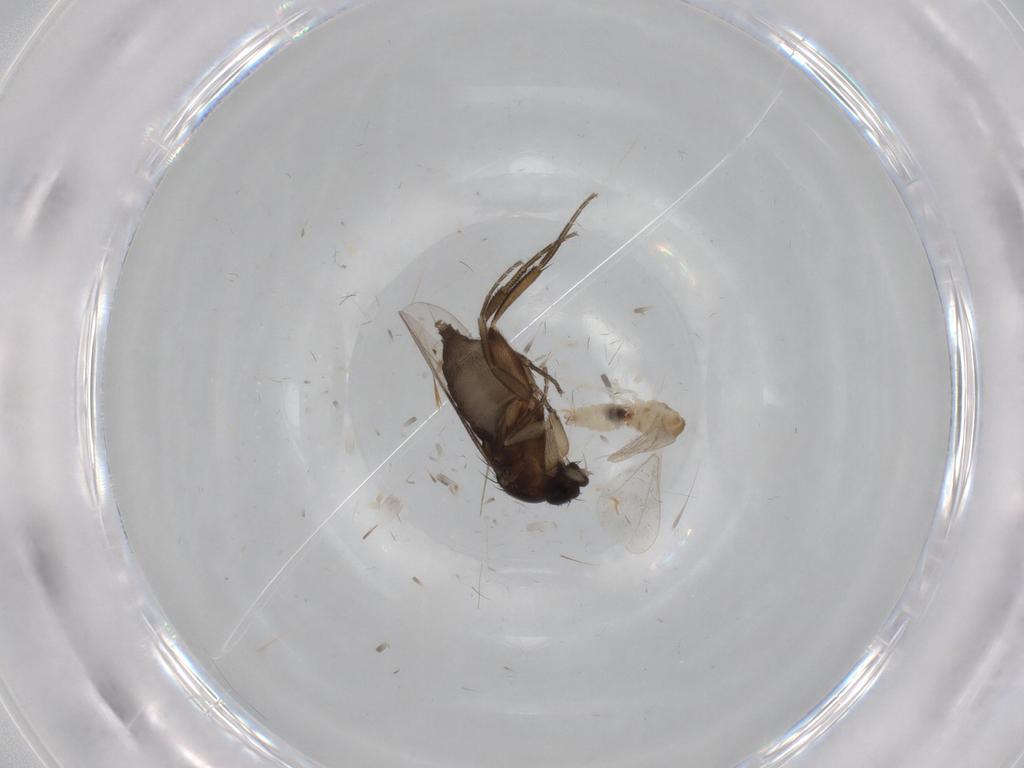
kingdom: Animalia
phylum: Arthropoda
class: Insecta
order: Diptera
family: Phoridae
